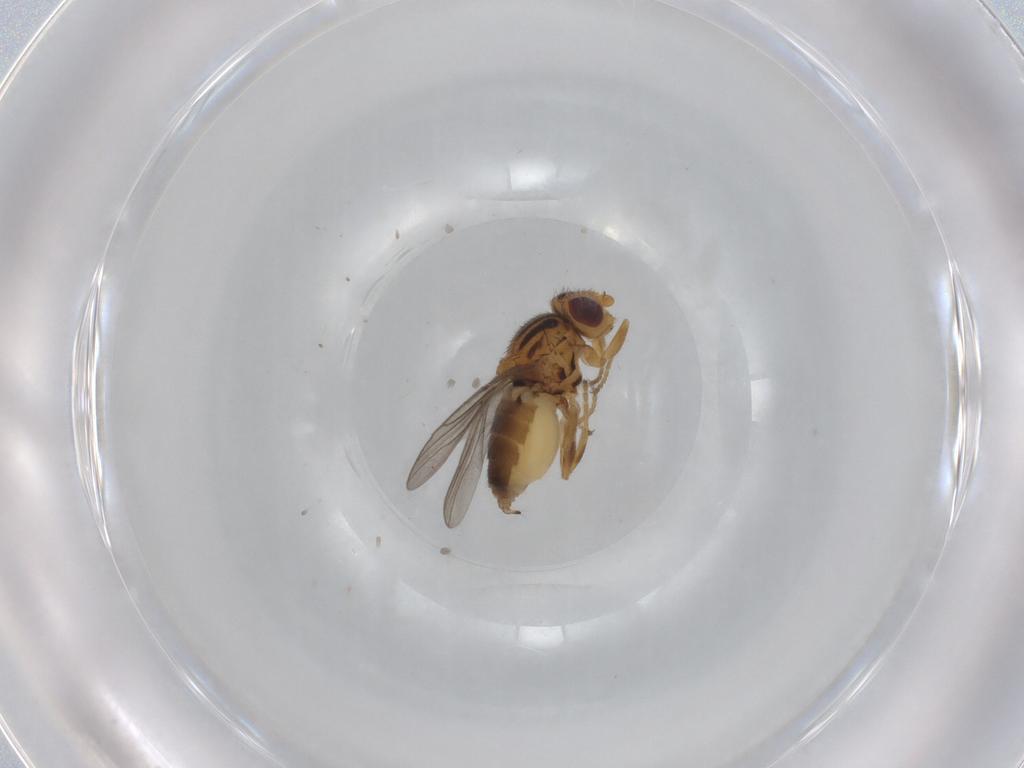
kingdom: Animalia
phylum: Arthropoda
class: Insecta
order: Diptera
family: Chloropidae
